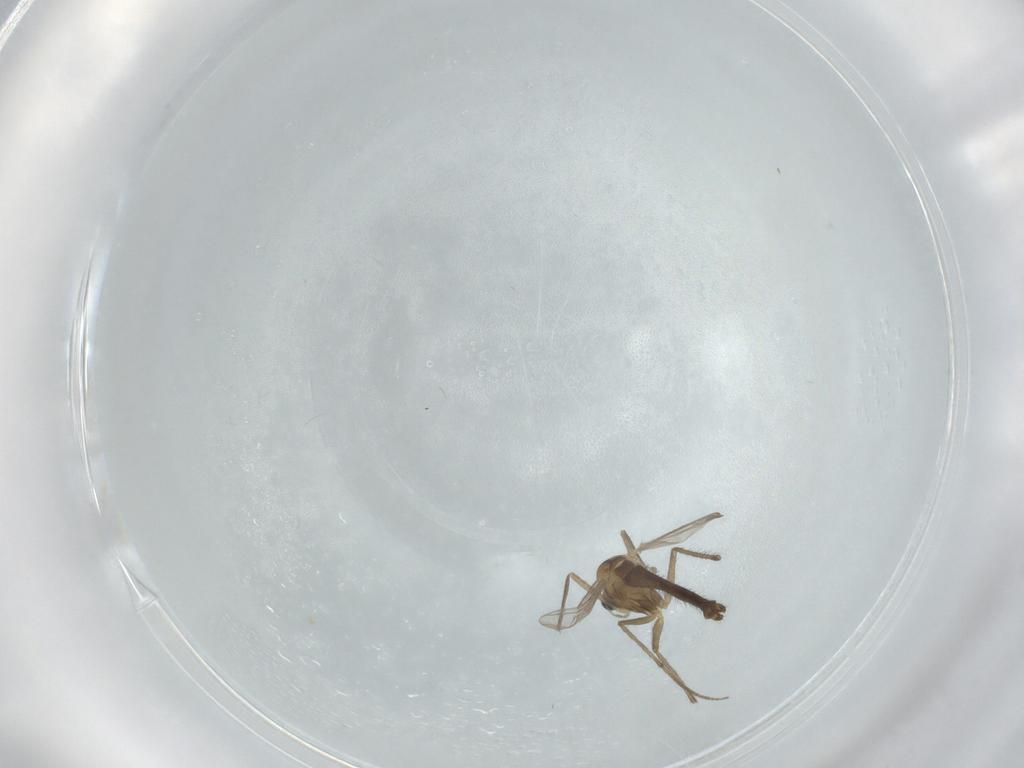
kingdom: Animalia
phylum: Arthropoda
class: Insecta
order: Diptera
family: Chironomidae
